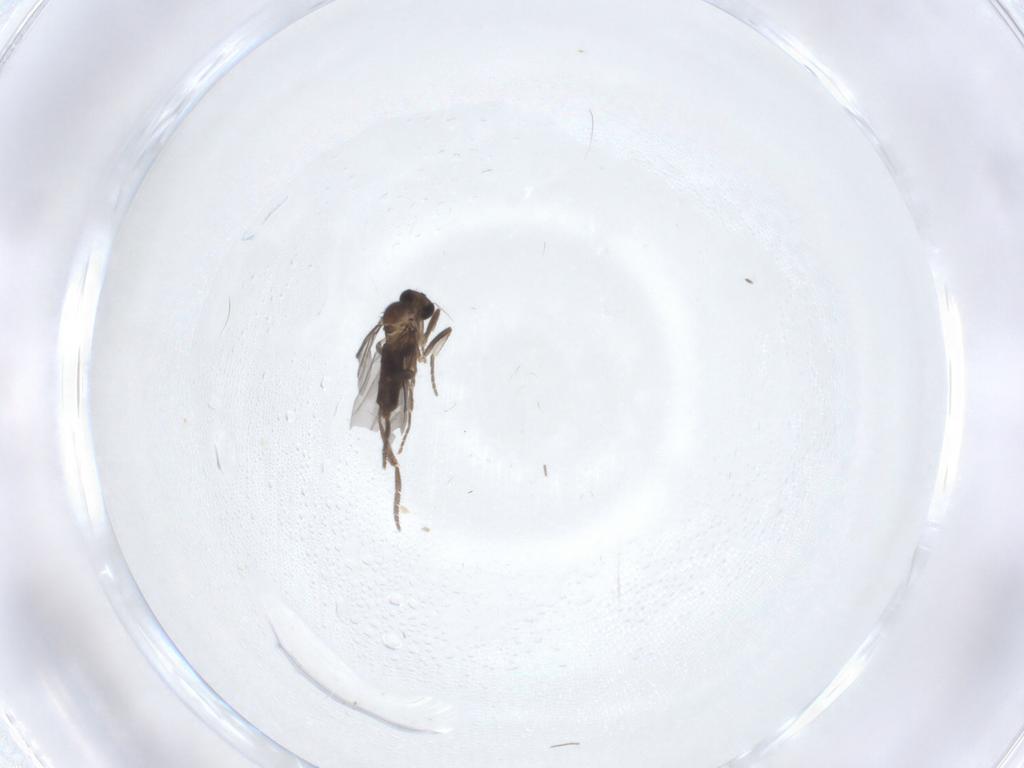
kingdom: Animalia
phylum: Arthropoda
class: Insecta
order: Diptera
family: Phoridae
